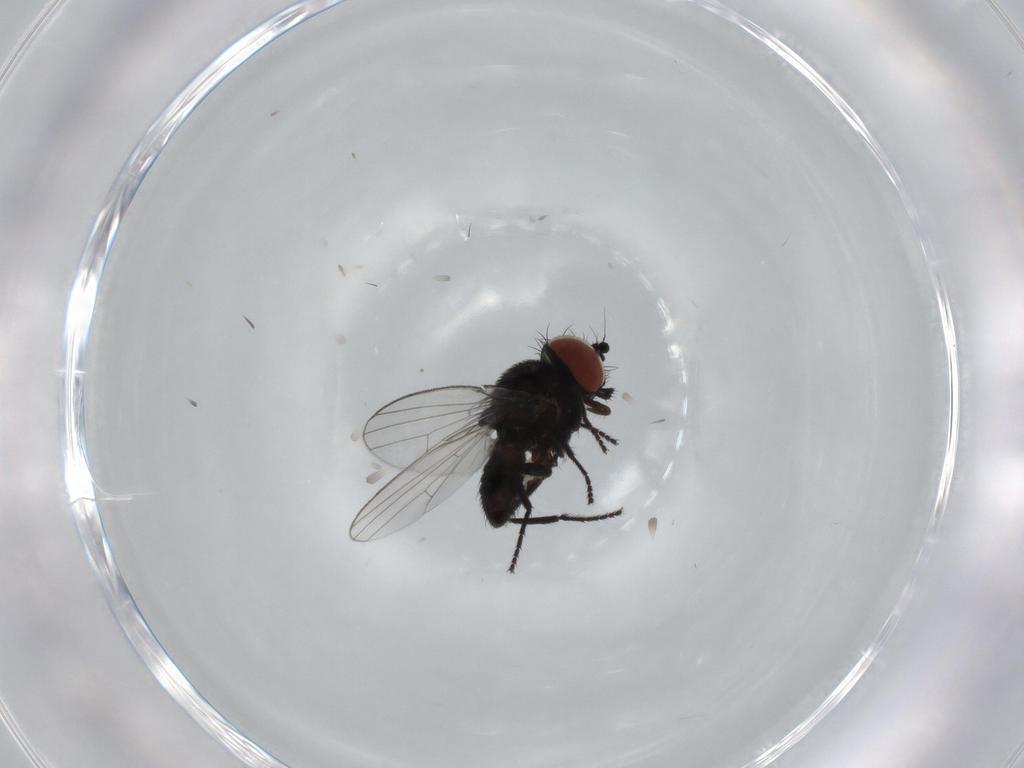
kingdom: Animalia
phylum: Arthropoda
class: Insecta
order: Diptera
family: Milichiidae
